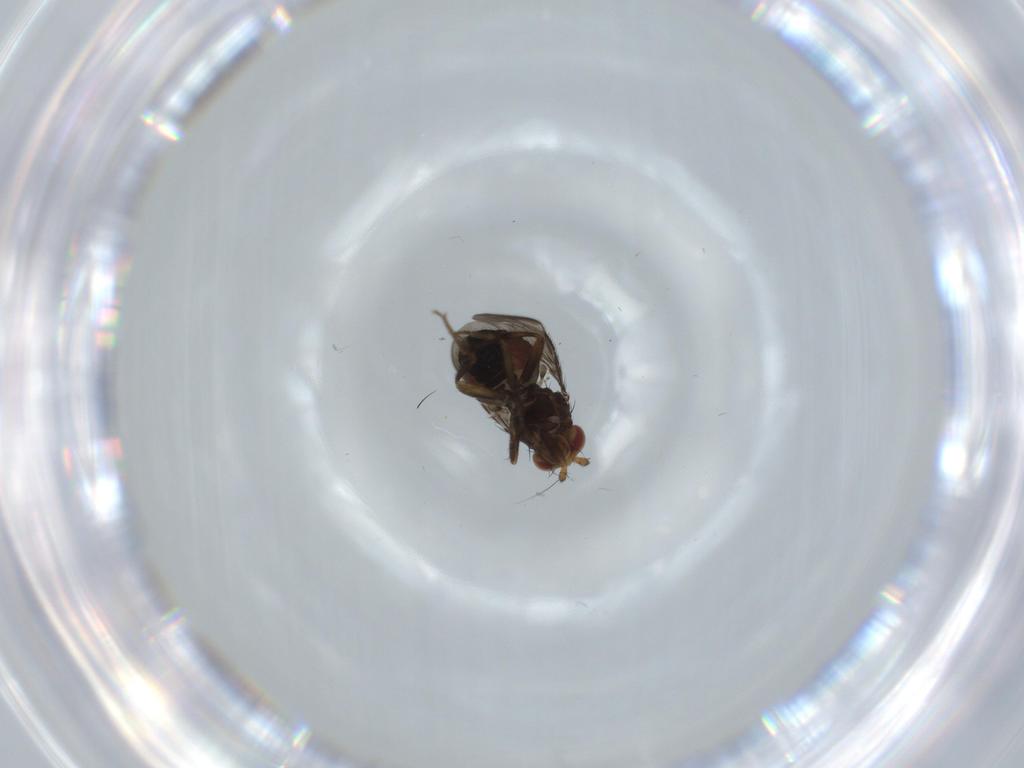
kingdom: Animalia
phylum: Arthropoda
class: Insecta
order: Diptera
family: Sphaeroceridae
